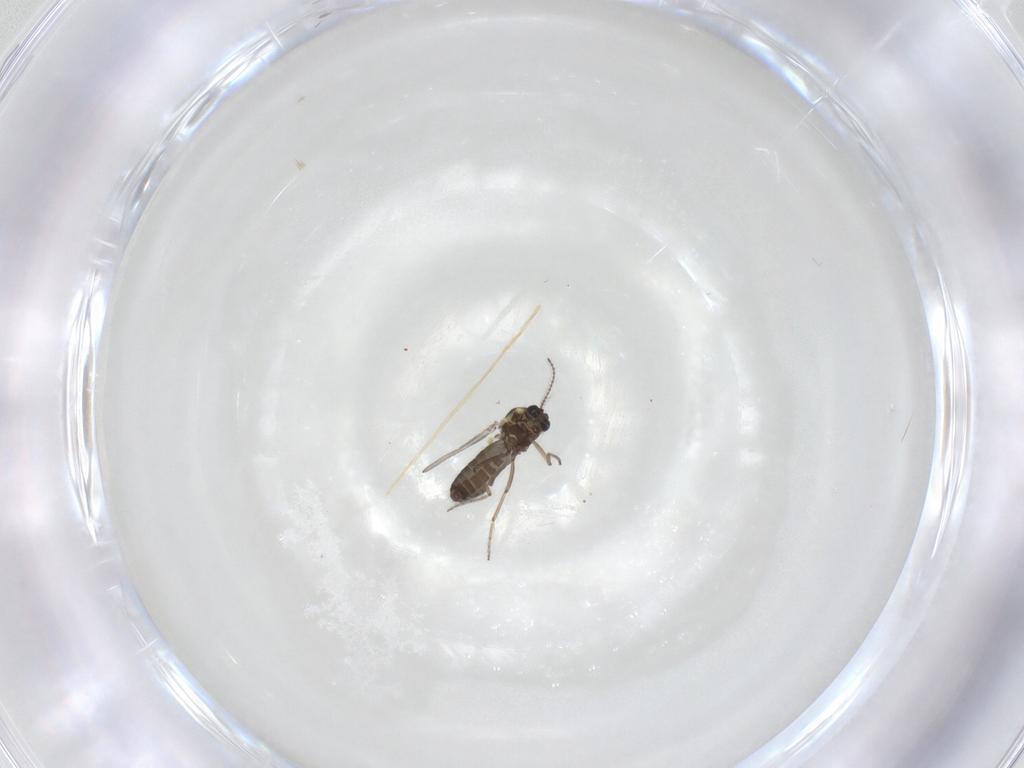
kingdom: Animalia
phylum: Arthropoda
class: Insecta
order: Diptera
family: Ceratopogonidae
